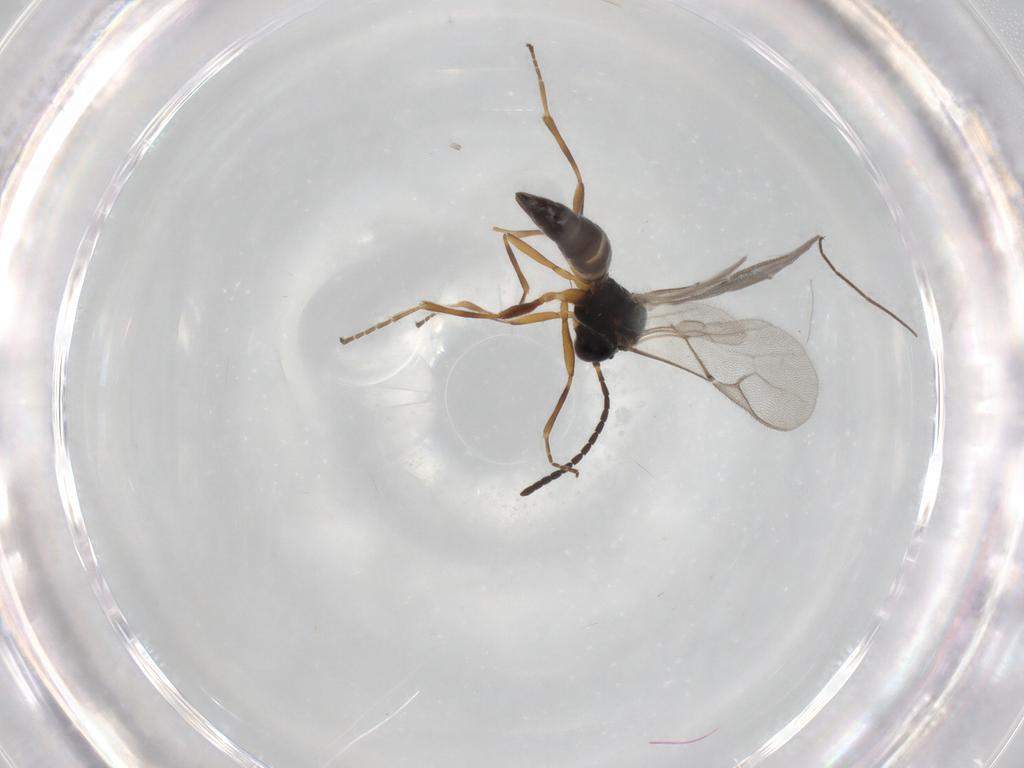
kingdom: Animalia
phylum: Arthropoda
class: Insecta
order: Hymenoptera
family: Braconidae
